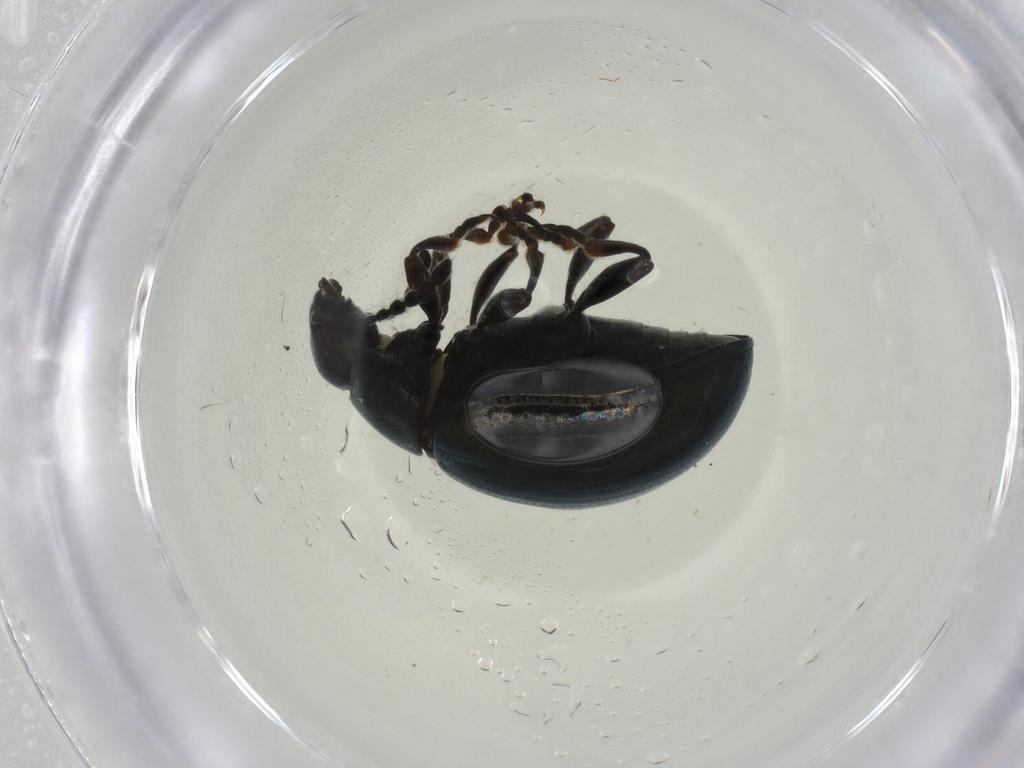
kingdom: Animalia
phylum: Arthropoda
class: Insecta
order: Coleoptera
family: Chrysomelidae
